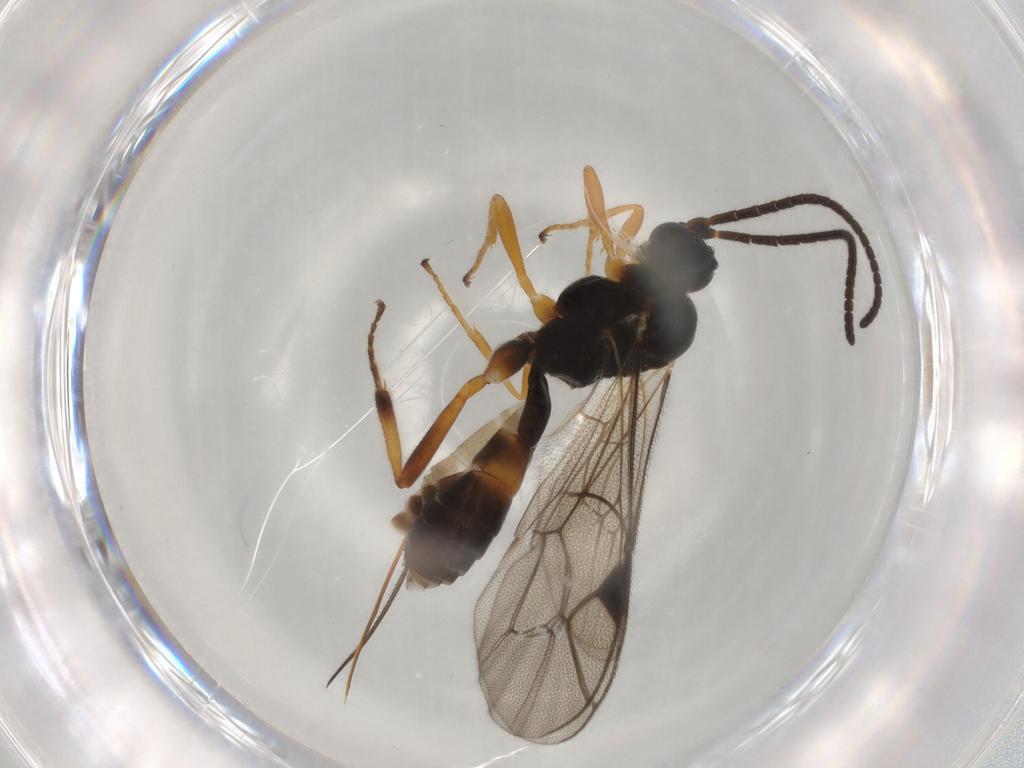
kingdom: Animalia
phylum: Arthropoda
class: Insecta
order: Hymenoptera
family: Ichneumonidae
